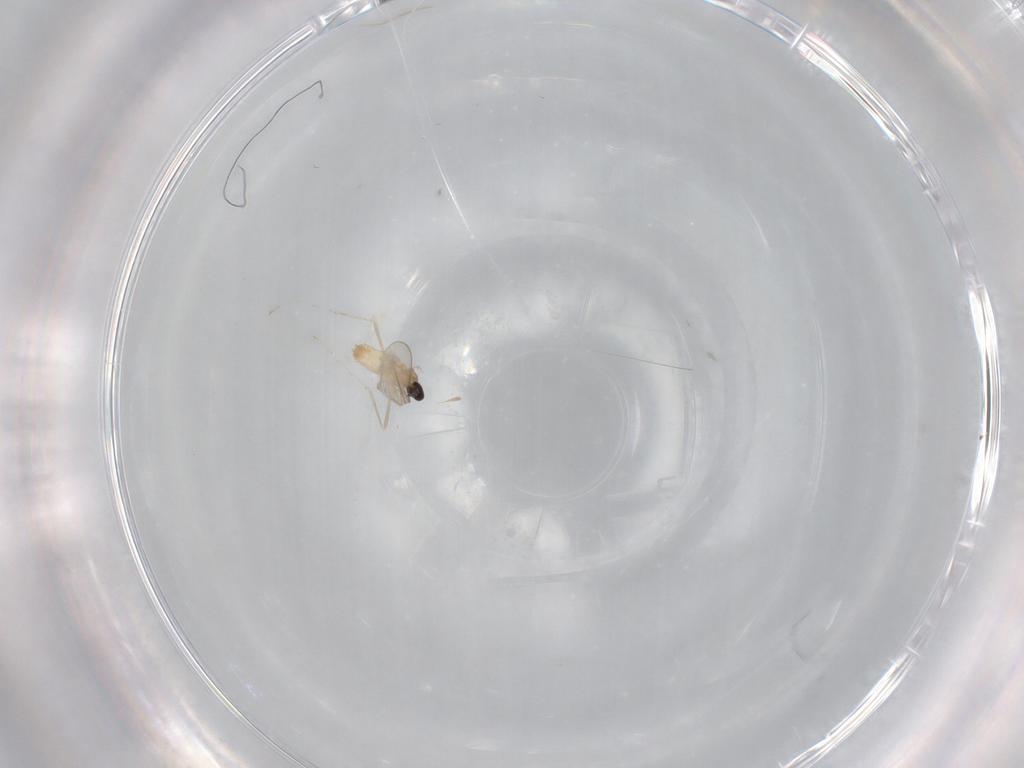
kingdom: Animalia
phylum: Arthropoda
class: Insecta
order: Diptera
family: Cecidomyiidae
